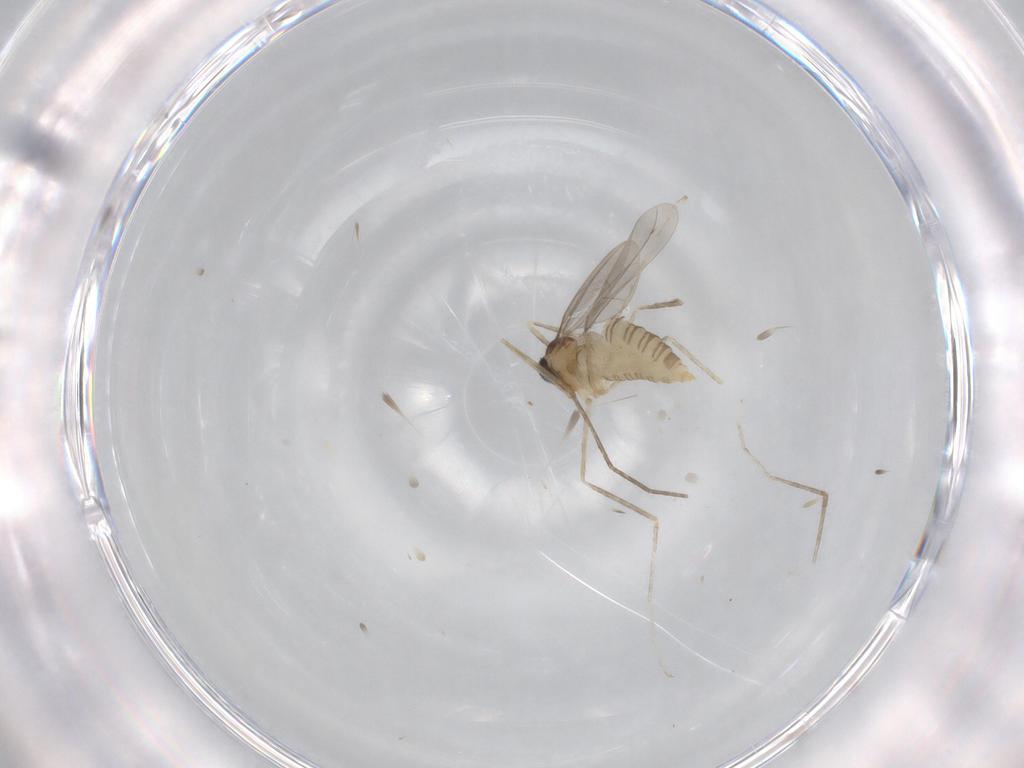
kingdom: Animalia
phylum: Arthropoda
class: Insecta
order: Diptera
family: Cecidomyiidae
